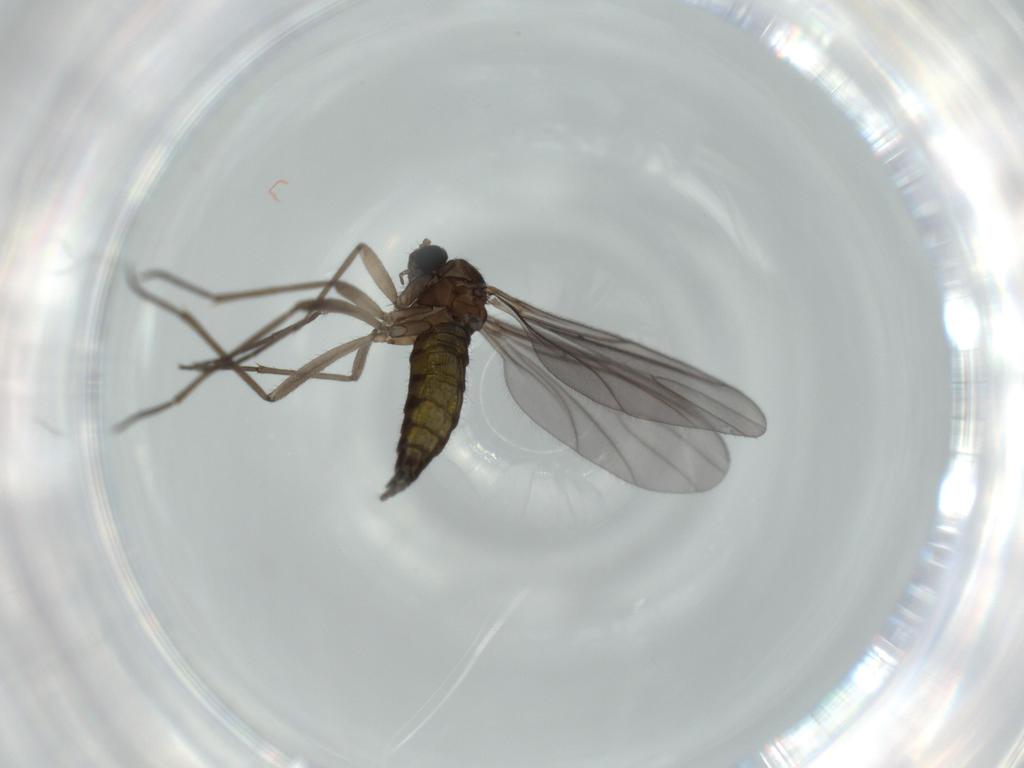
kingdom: Animalia
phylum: Arthropoda
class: Insecta
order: Diptera
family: Sciaridae
